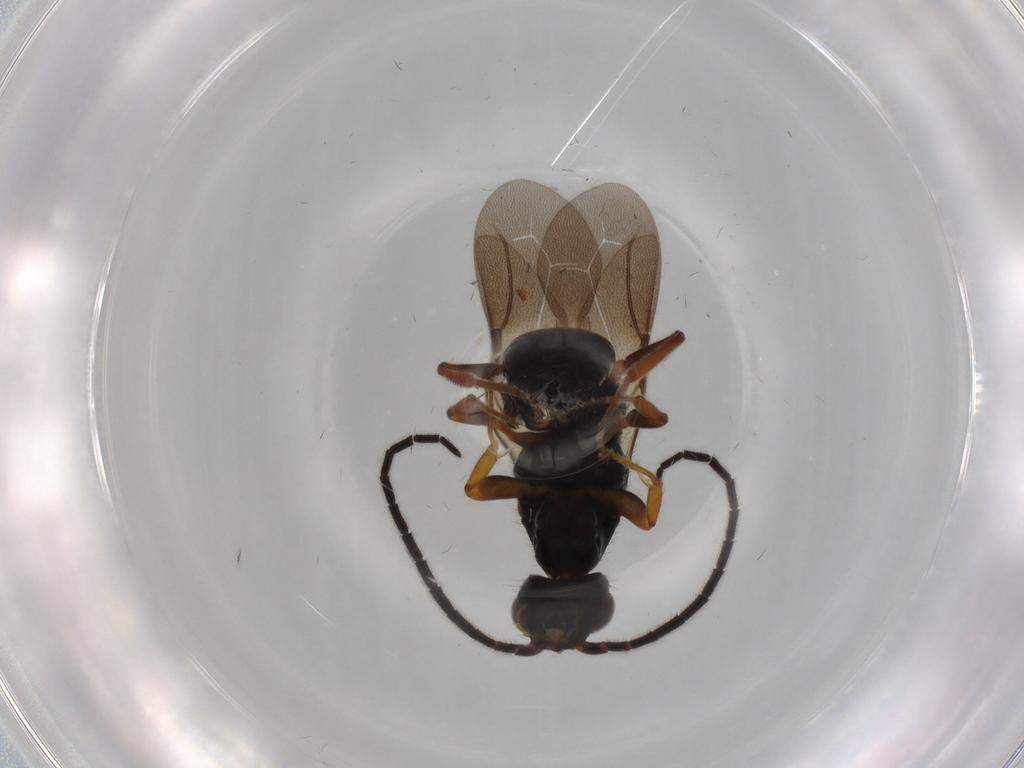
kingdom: Animalia
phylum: Arthropoda
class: Insecta
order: Hymenoptera
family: Bethylidae
